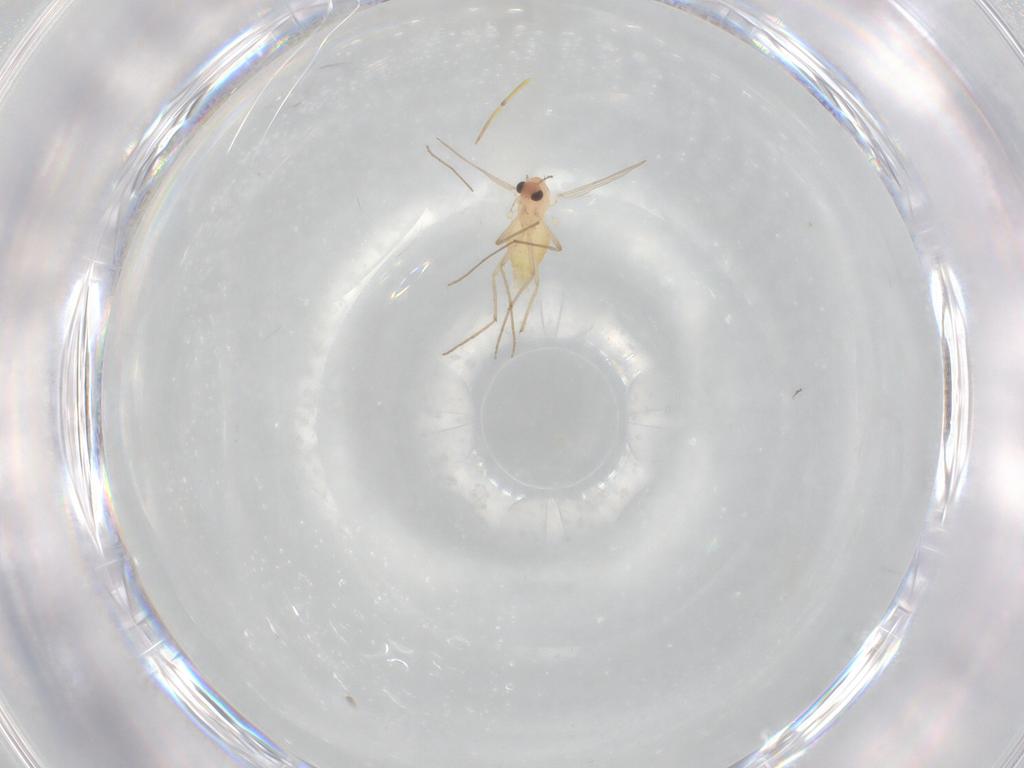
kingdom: Animalia
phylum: Arthropoda
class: Insecta
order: Diptera
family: Chironomidae
